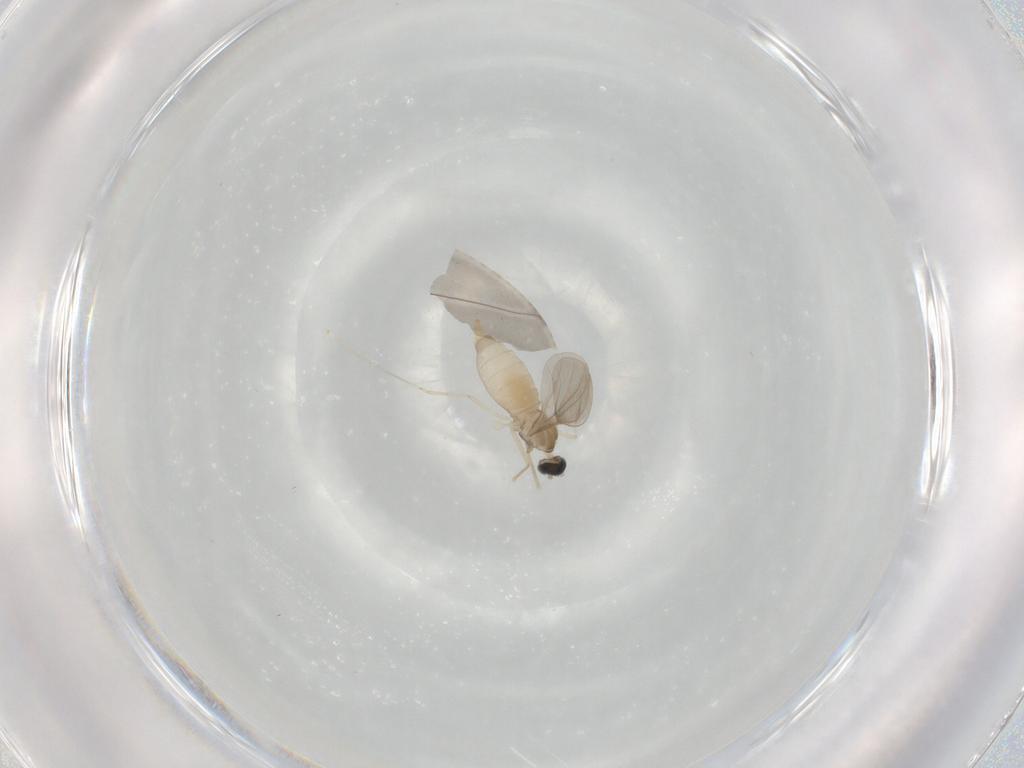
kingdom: Animalia
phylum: Arthropoda
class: Insecta
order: Diptera
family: Cecidomyiidae
